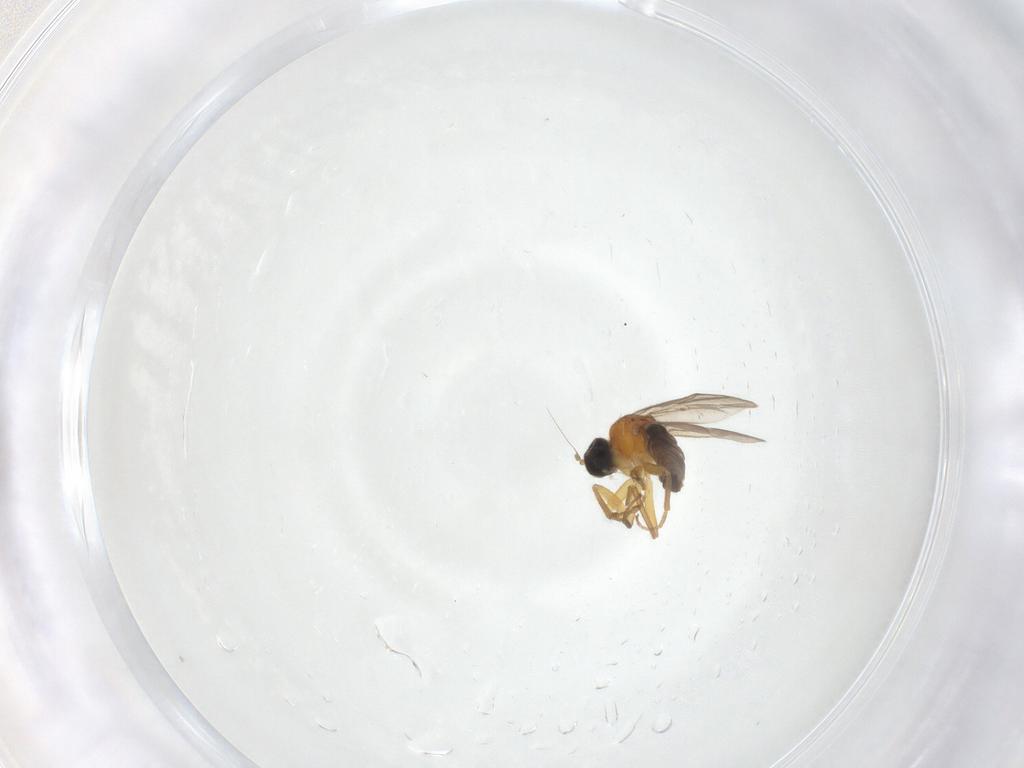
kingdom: Animalia
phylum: Arthropoda
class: Insecta
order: Diptera
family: Hybotidae
